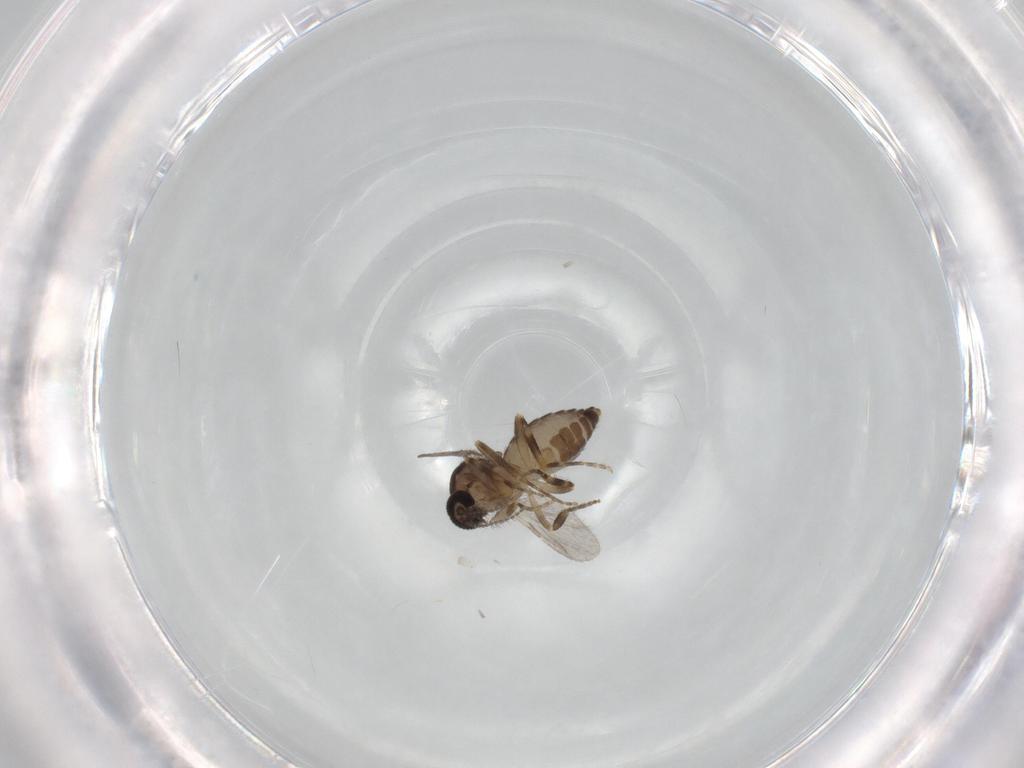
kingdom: Animalia
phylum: Arthropoda
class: Insecta
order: Diptera
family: Ceratopogonidae
